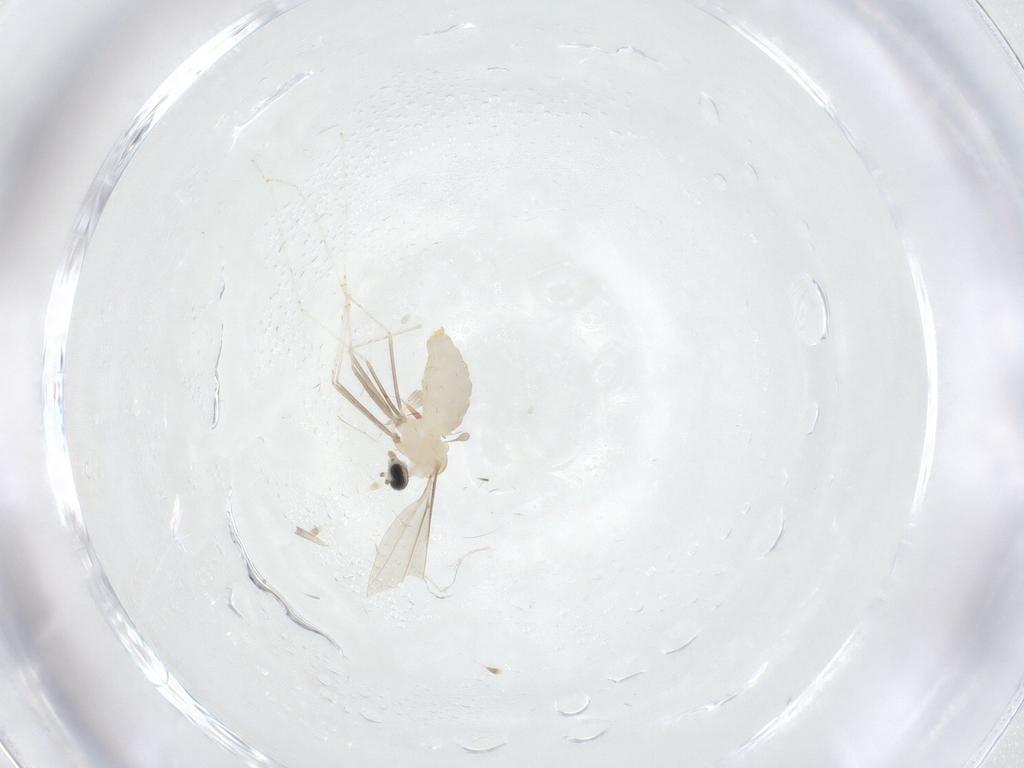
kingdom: Animalia
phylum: Arthropoda
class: Insecta
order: Diptera
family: Cecidomyiidae
